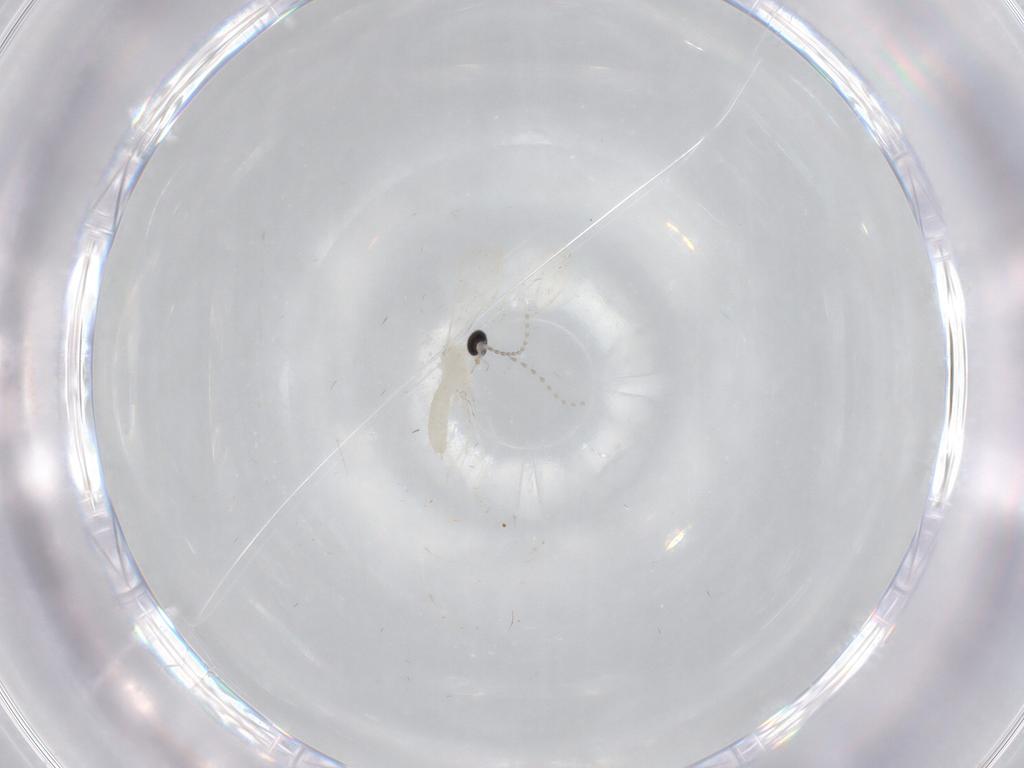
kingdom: Animalia
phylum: Arthropoda
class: Insecta
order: Diptera
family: Cecidomyiidae
